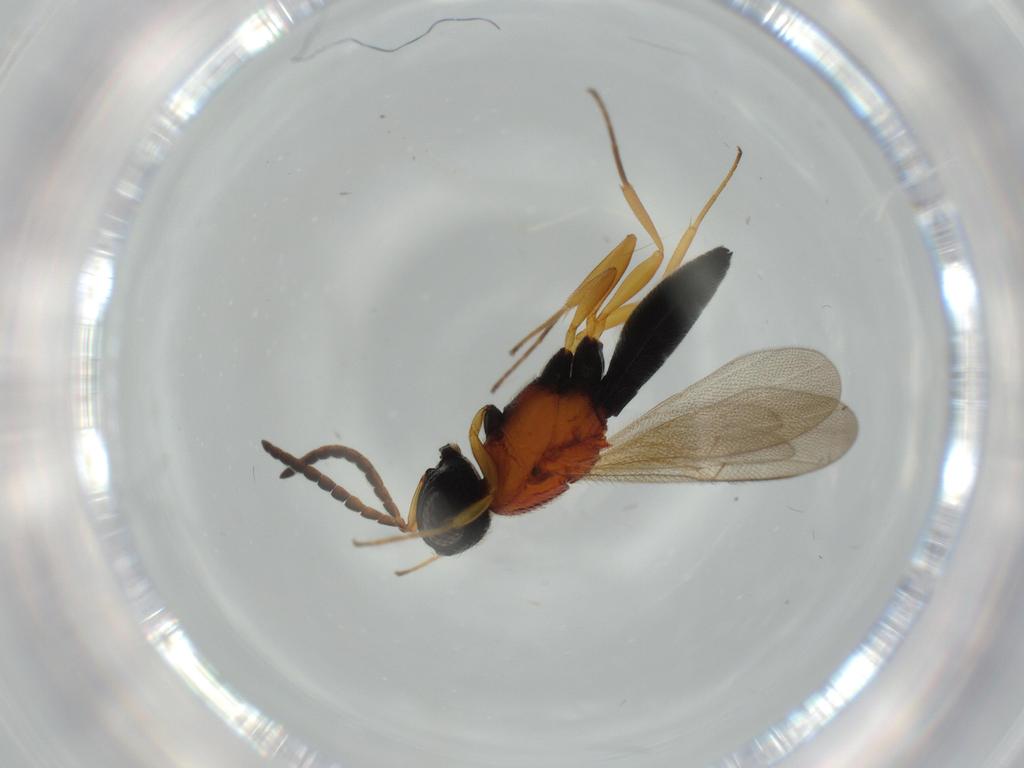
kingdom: Animalia
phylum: Arthropoda
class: Insecta
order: Hymenoptera
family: Scelionidae
